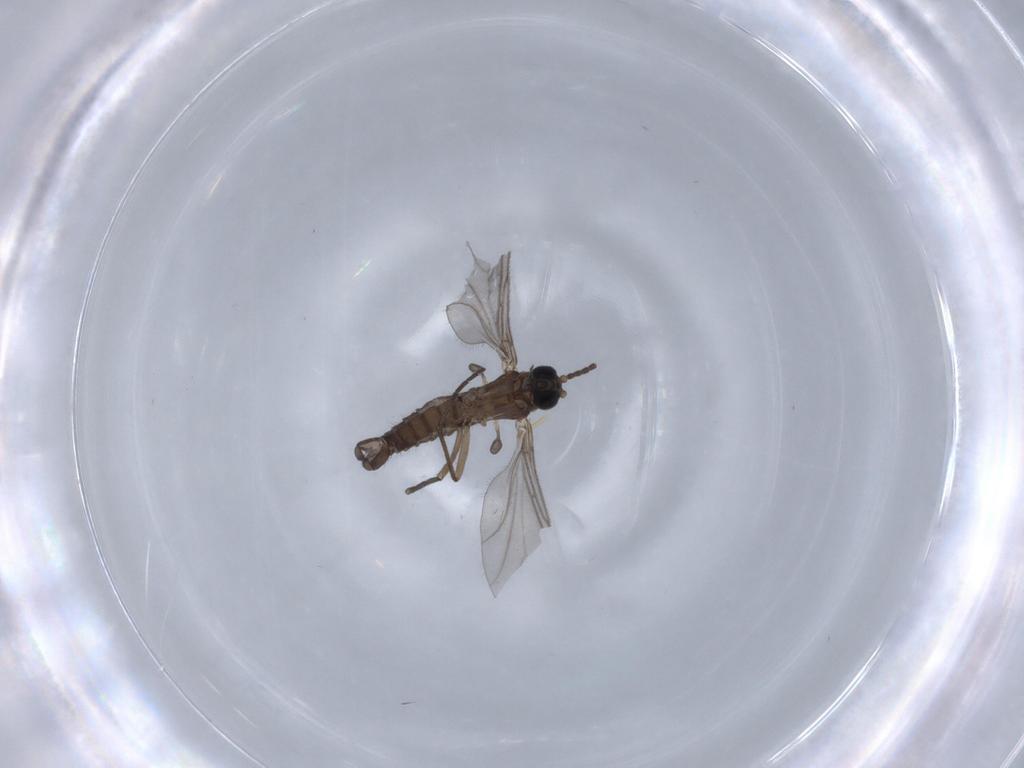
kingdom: Animalia
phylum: Arthropoda
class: Insecta
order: Diptera
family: Sciaridae
